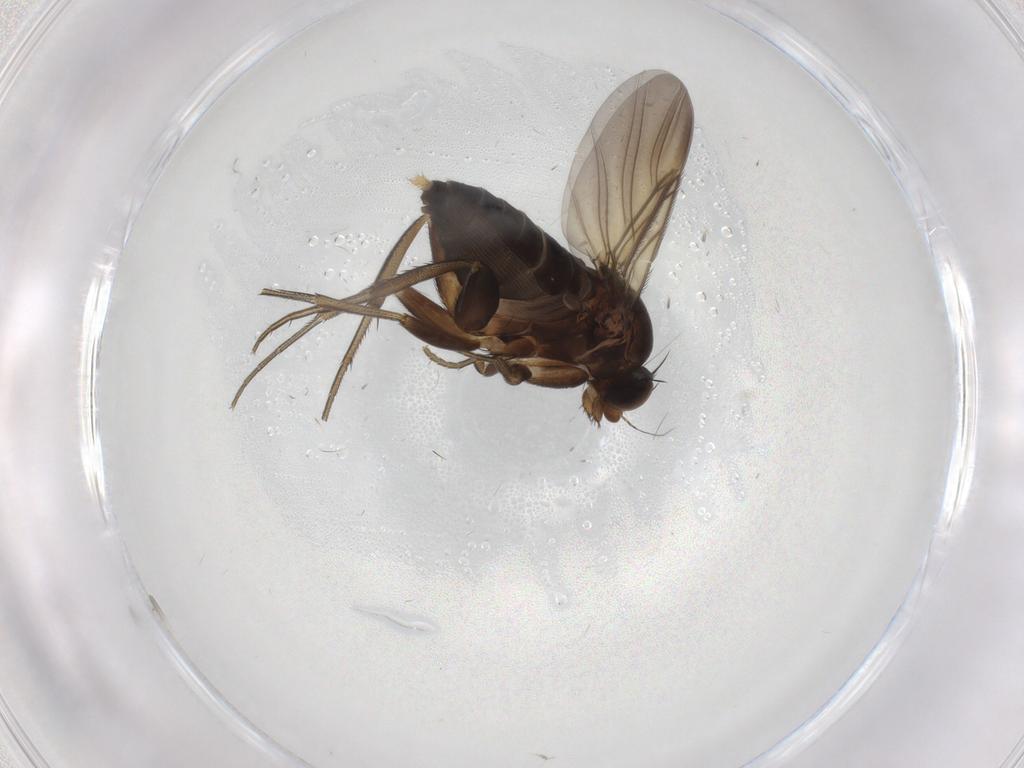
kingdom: Animalia
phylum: Arthropoda
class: Insecta
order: Diptera
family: Phoridae
